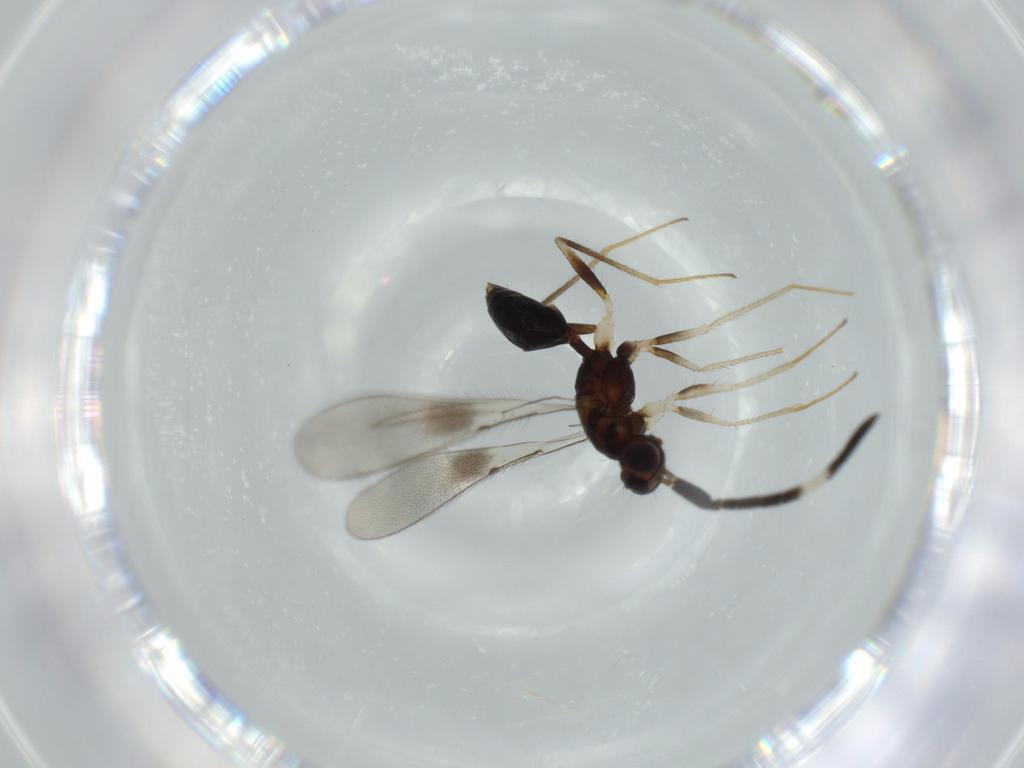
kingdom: Animalia
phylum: Arthropoda
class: Insecta
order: Hymenoptera
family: Mymaridae
